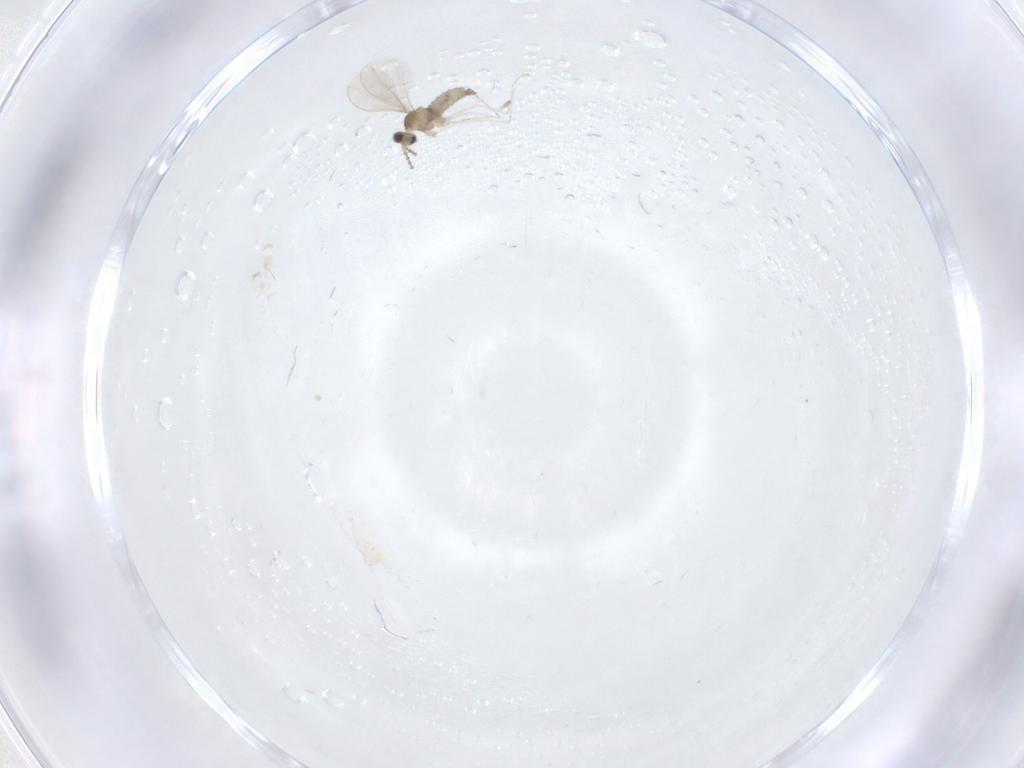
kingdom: Animalia
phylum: Arthropoda
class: Insecta
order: Diptera
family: Cecidomyiidae
